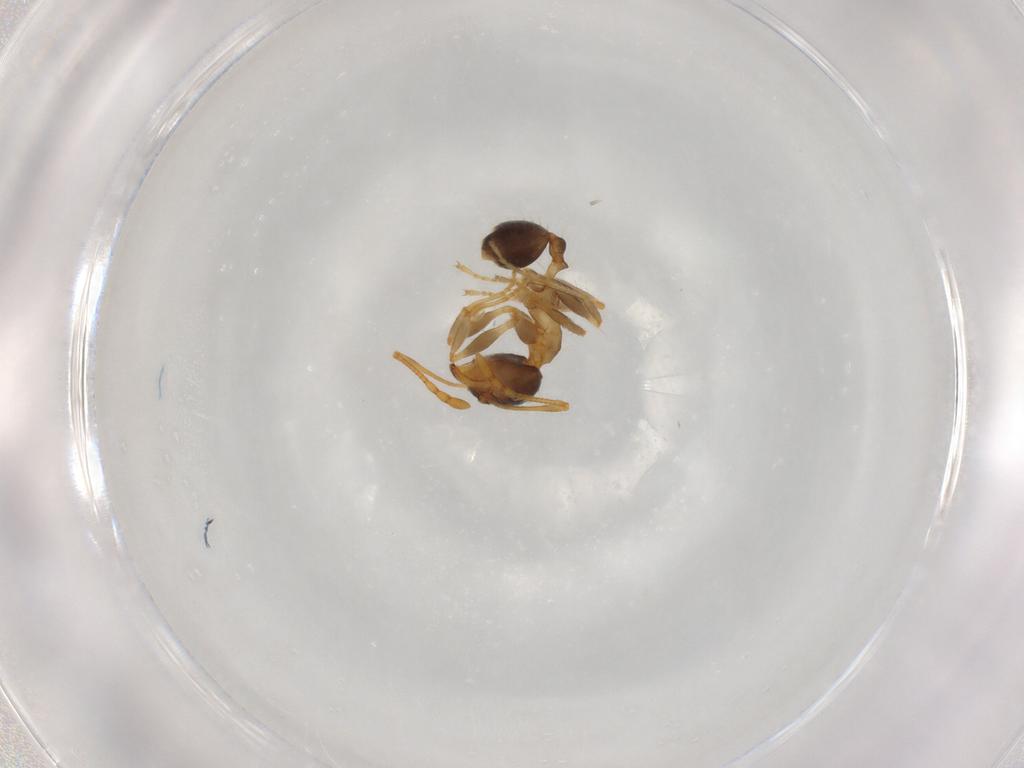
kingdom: Animalia
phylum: Arthropoda
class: Insecta
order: Hymenoptera
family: Formicidae
